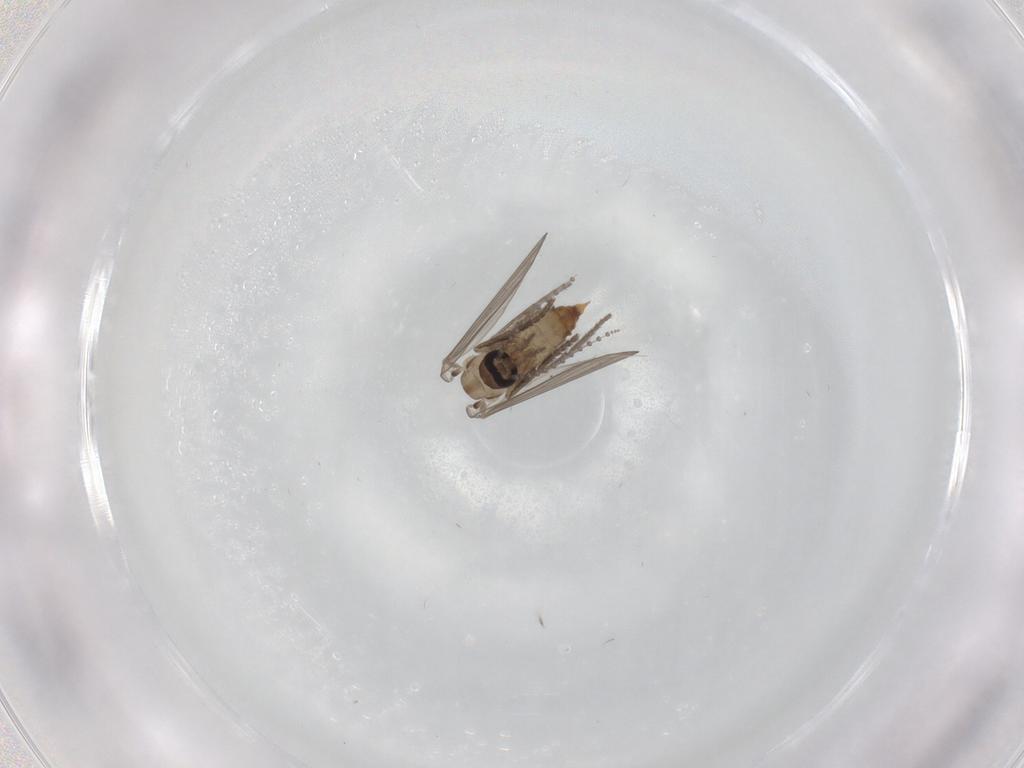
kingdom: Animalia
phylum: Arthropoda
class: Insecta
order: Diptera
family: Psychodidae
